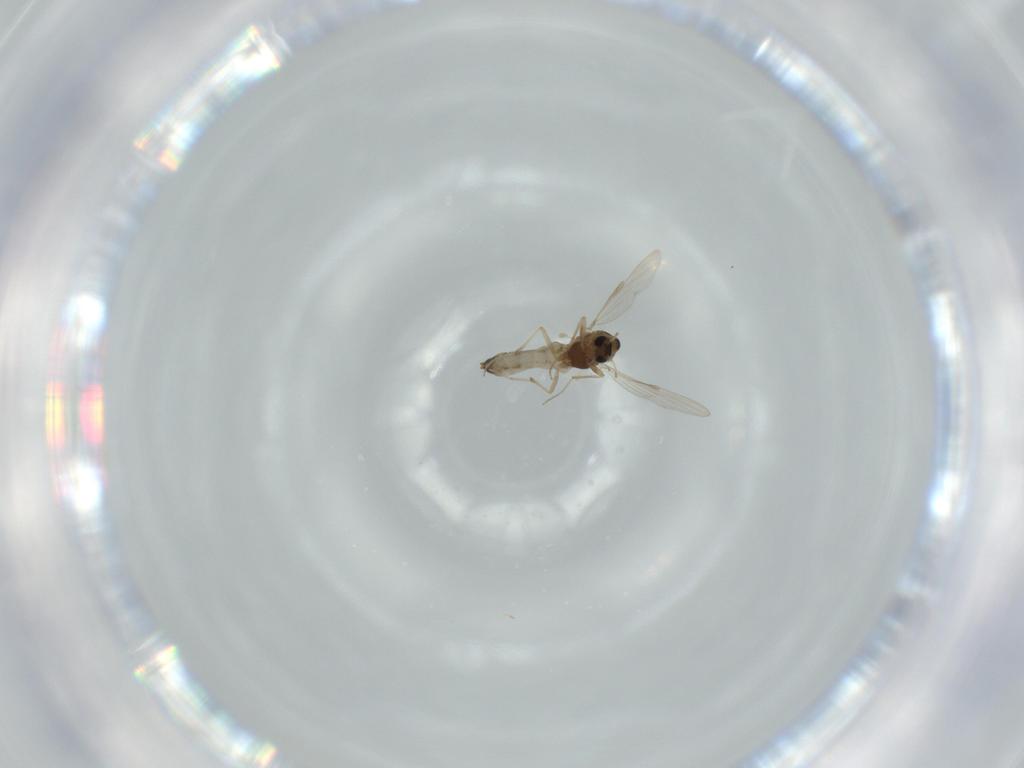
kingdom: Animalia
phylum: Arthropoda
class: Insecta
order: Diptera
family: Chironomidae
